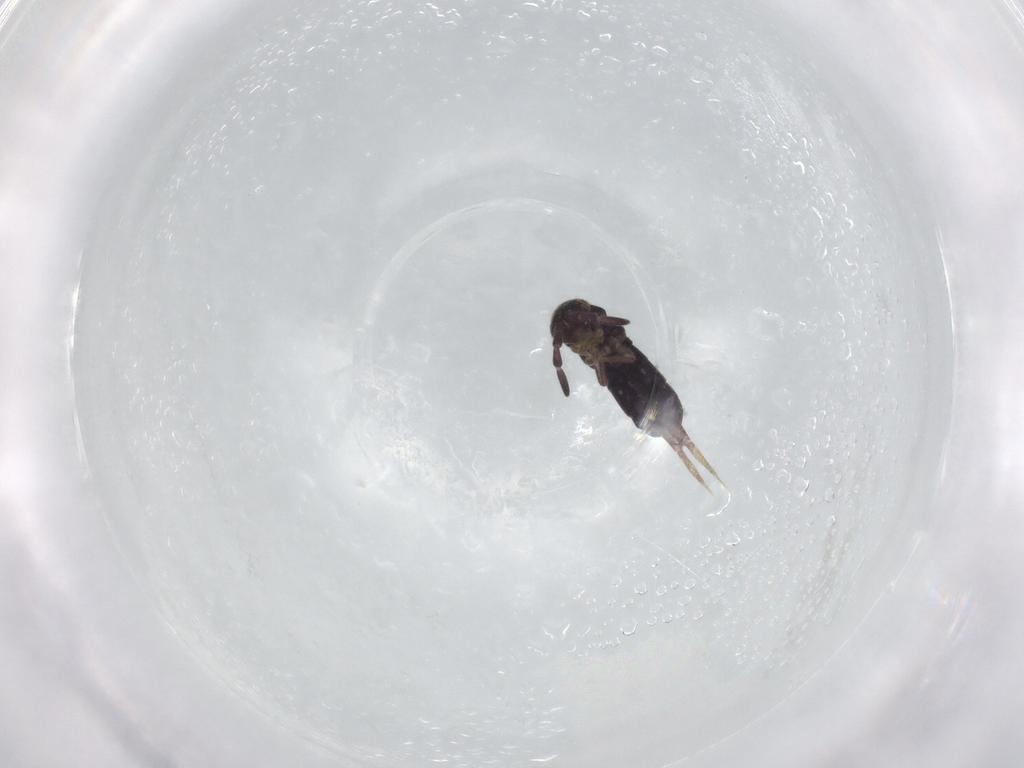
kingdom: Animalia
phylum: Arthropoda
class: Collembola
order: Entomobryomorpha
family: Isotomidae
